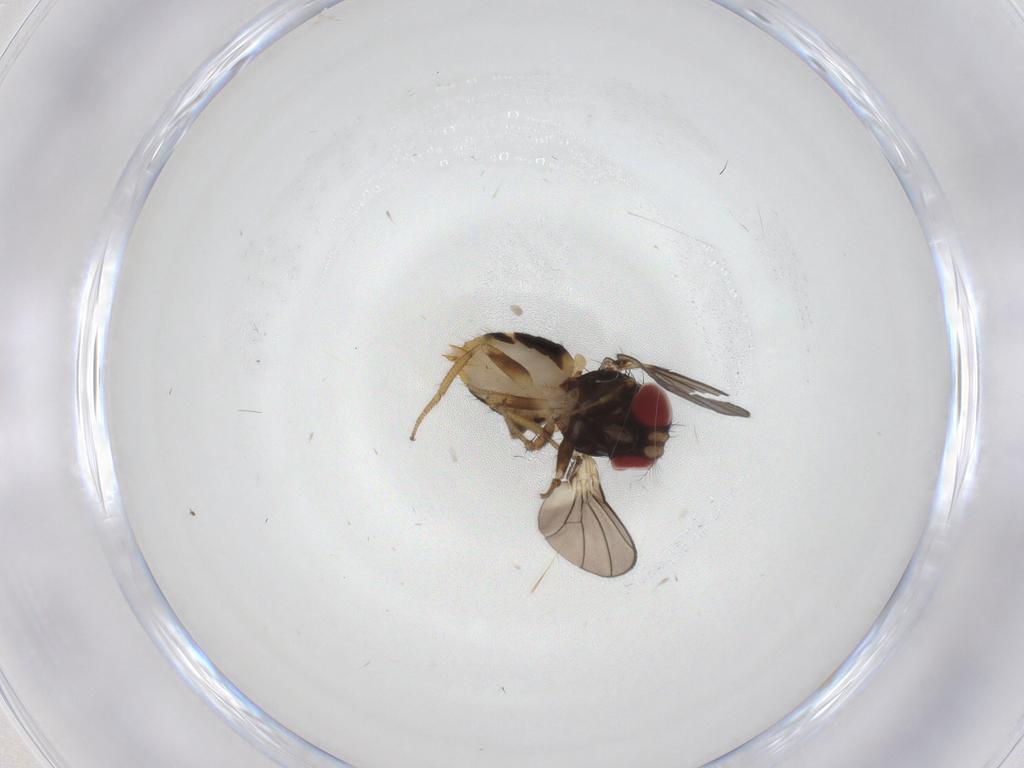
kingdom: Animalia
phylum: Arthropoda
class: Insecta
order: Diptera
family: Drosophilidae
